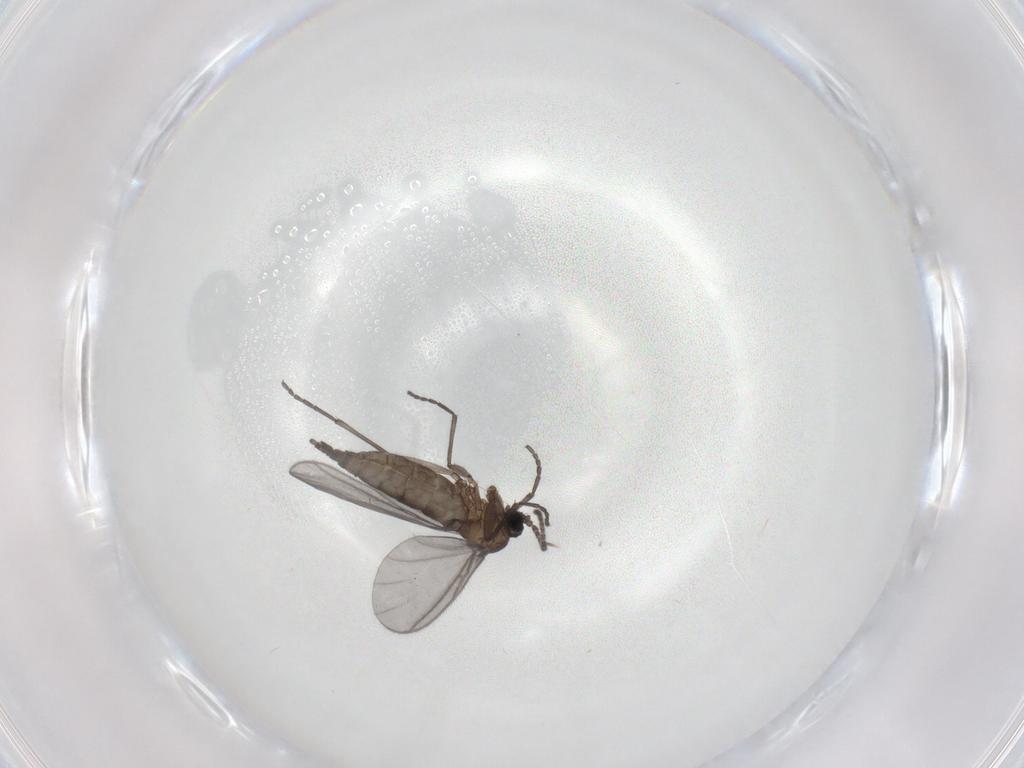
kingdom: Animalia
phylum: Arthropoda
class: Insecta
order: Diptera
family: Sciaridae
